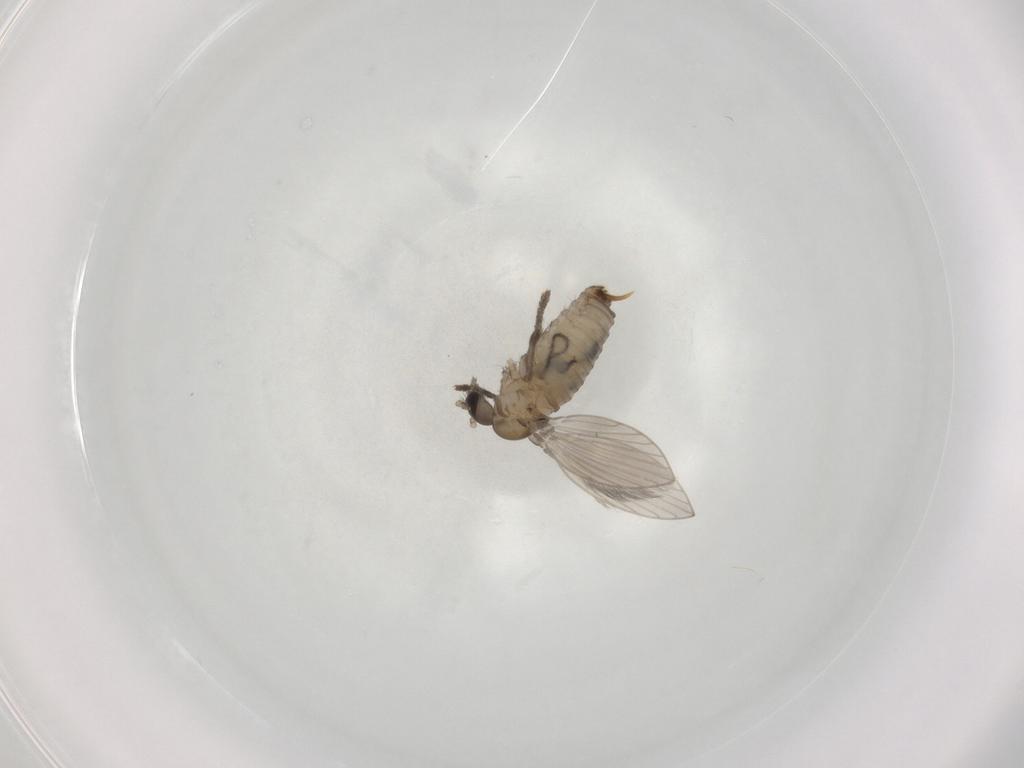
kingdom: Animalia
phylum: Arthropoda
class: Insecta
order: Diptera
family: Psychodidae
